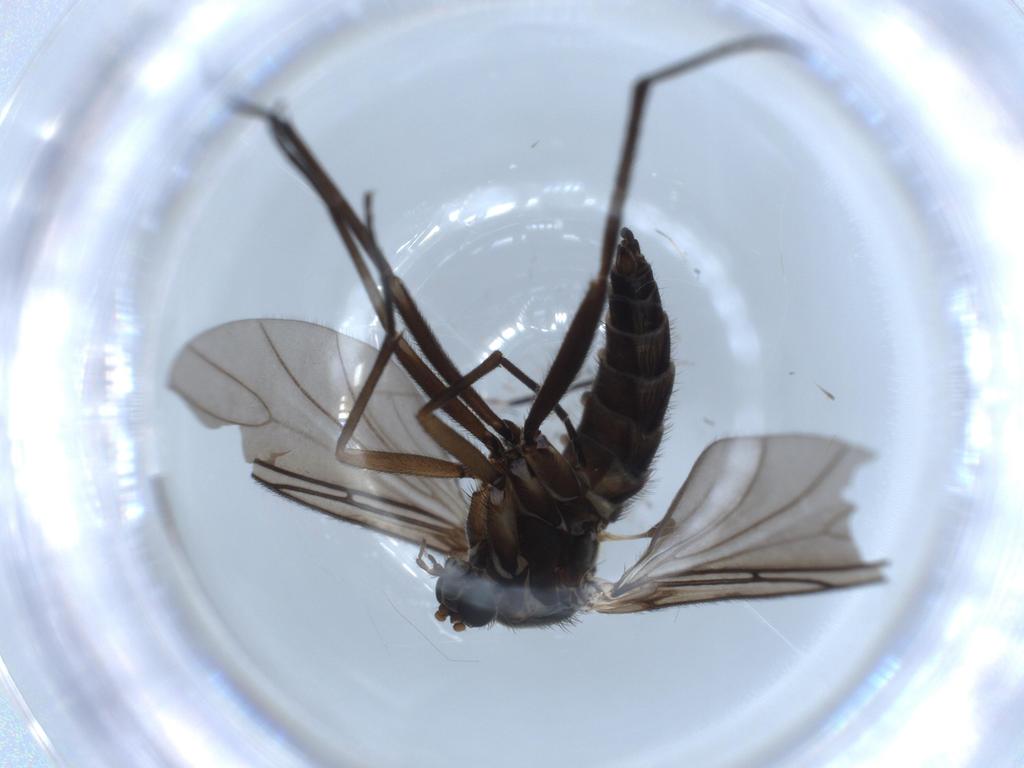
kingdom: Animalia
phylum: Arthropoda
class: Insecta
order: Diptera
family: Sciaridae
